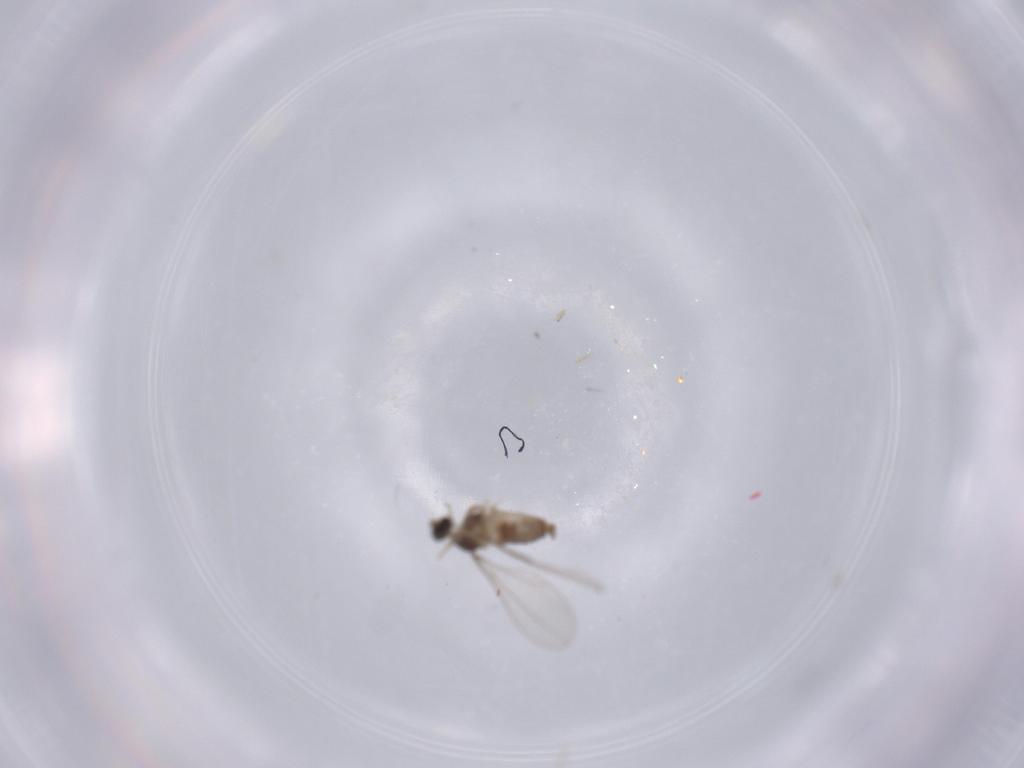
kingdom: Animalia
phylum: Arthropoda
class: Insecta
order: Diptera
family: Cecidomyiidae
